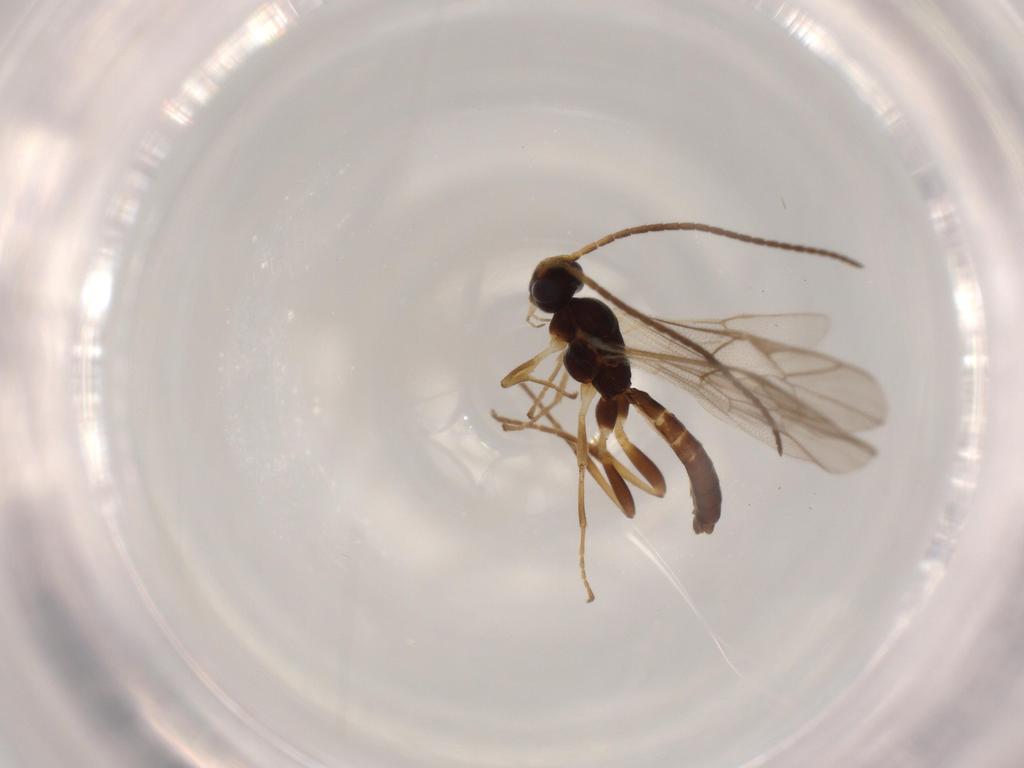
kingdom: Animalia
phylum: Arthropoda
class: Insecta
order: Hymenoptera
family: Ichneumonidae
